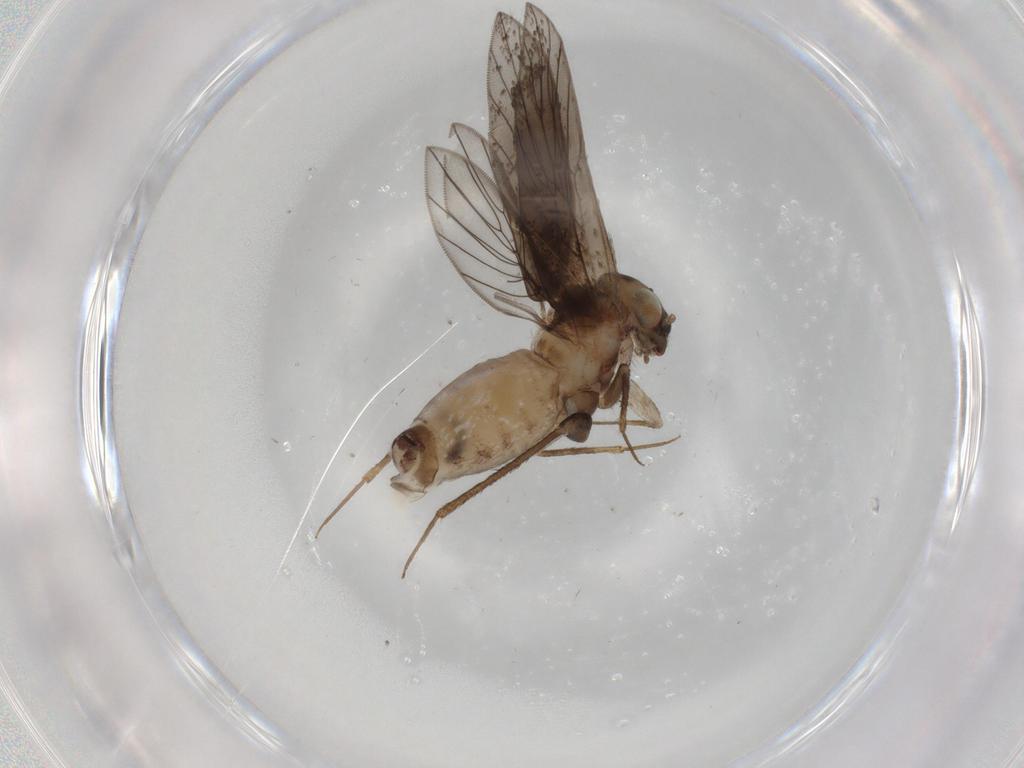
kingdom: Animalia
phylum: Arthropoda
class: Insecta
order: Psocodea
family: Lepidopsocidae
